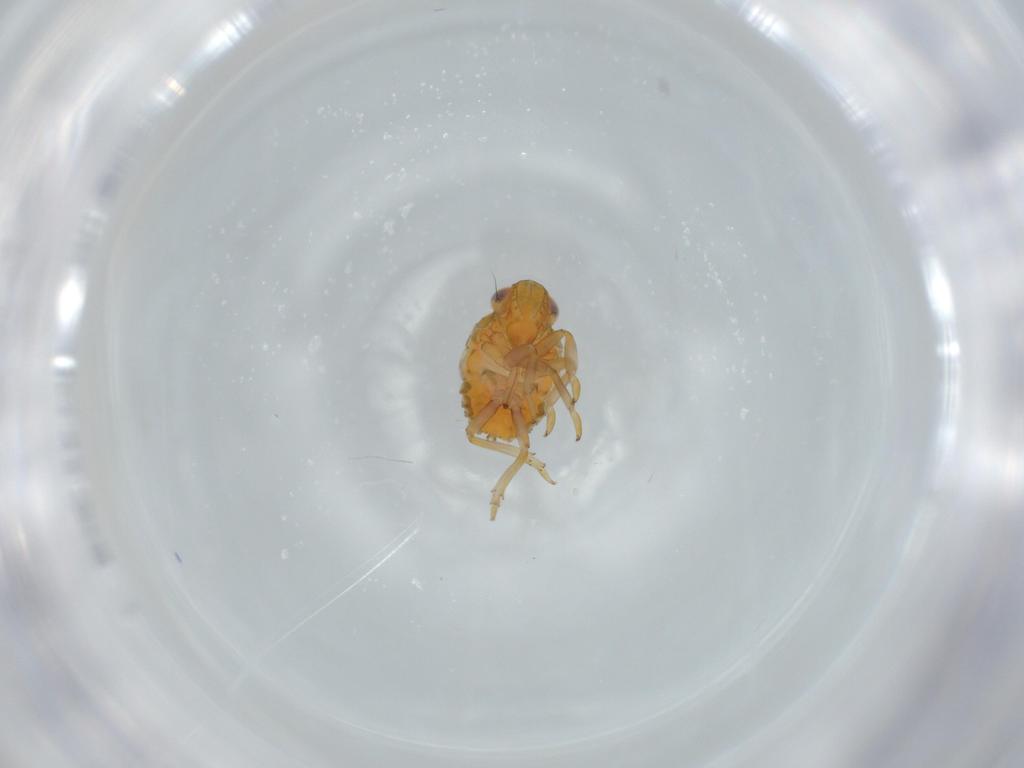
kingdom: Animalia
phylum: Arthropoda
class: Insecta
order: Hemiptera
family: Issidae
